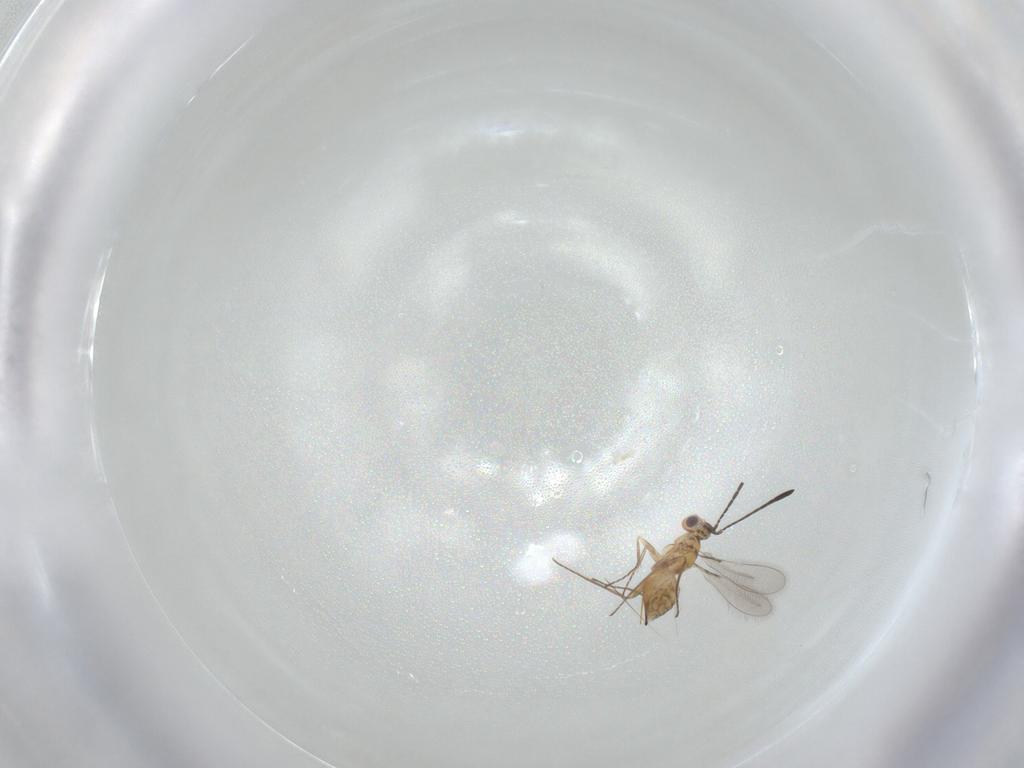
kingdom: Animalia
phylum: Arthropoda
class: Insecta
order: Hymenoptera
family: Mymaridae
